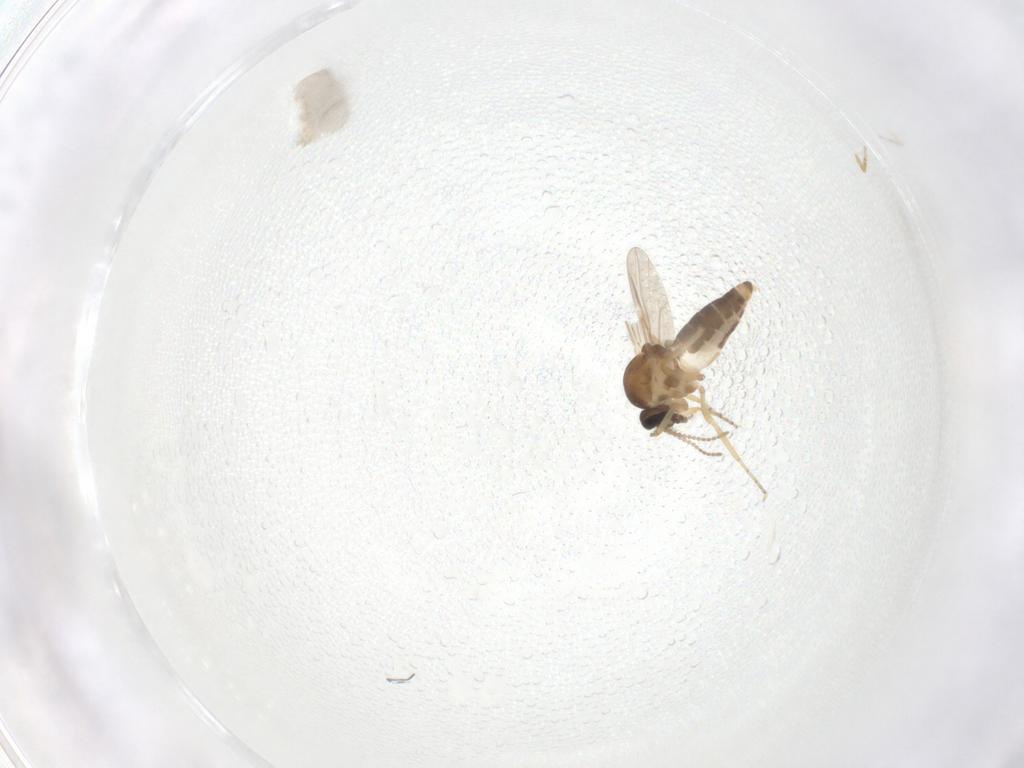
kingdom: Animalia
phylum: Arthropoda
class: Insecta
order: Diptera
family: Ceratopogonidae
